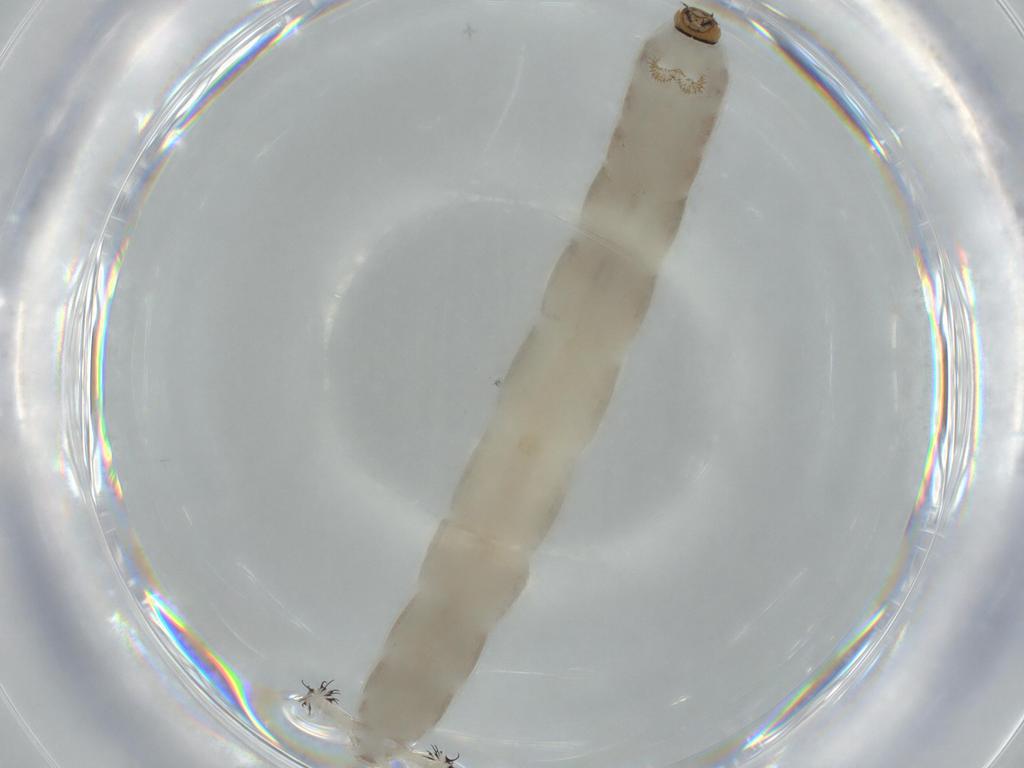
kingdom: Animalia
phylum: Arthropoda
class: Insecta
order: Diptera
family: Chironomidae
